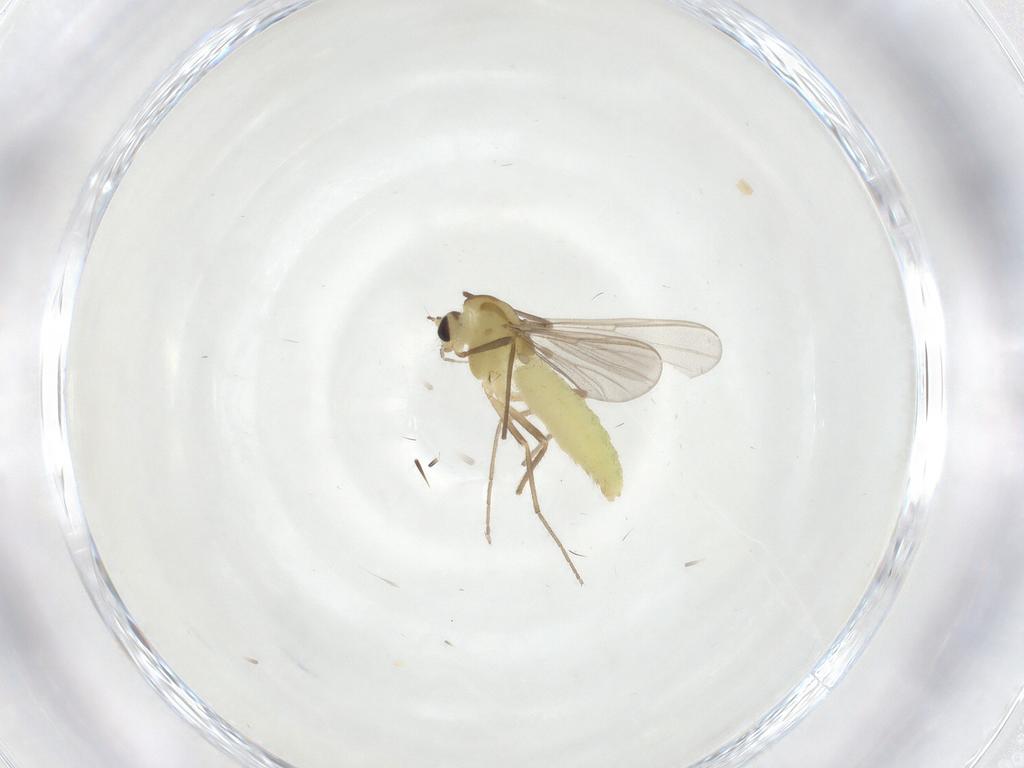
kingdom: Animalia
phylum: Arthropoda
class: Insecta
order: Diptera
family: Chironomidae
